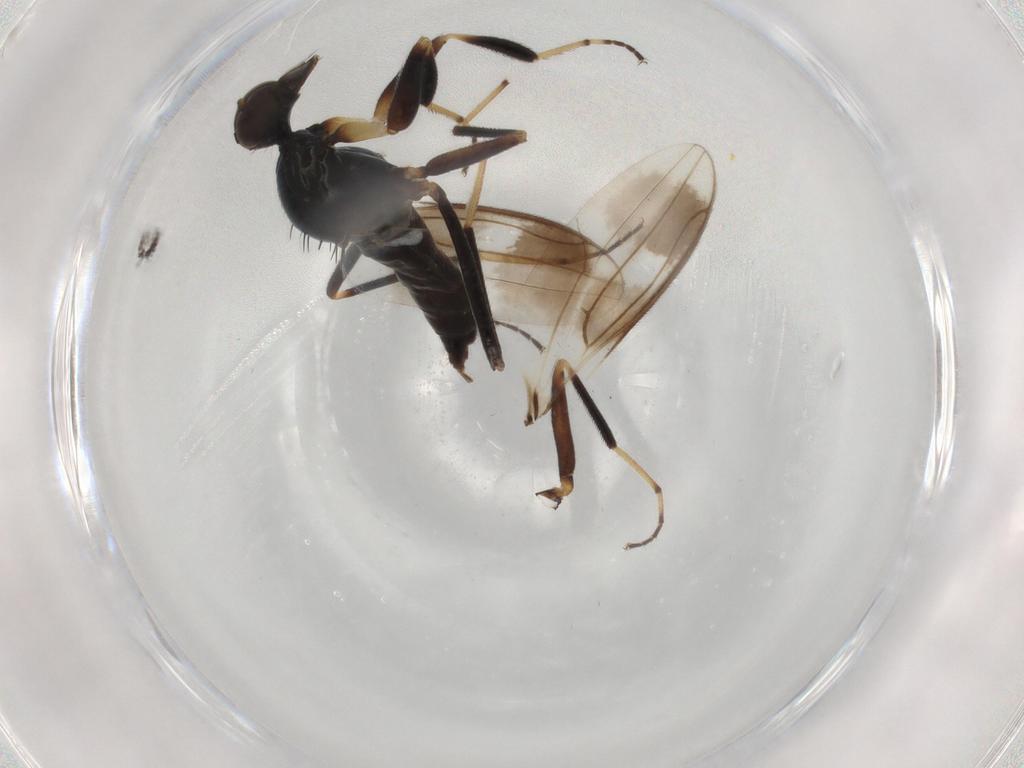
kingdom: Animalia
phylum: Arthropoda
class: Insecta
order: Diptera
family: Hybotidae
